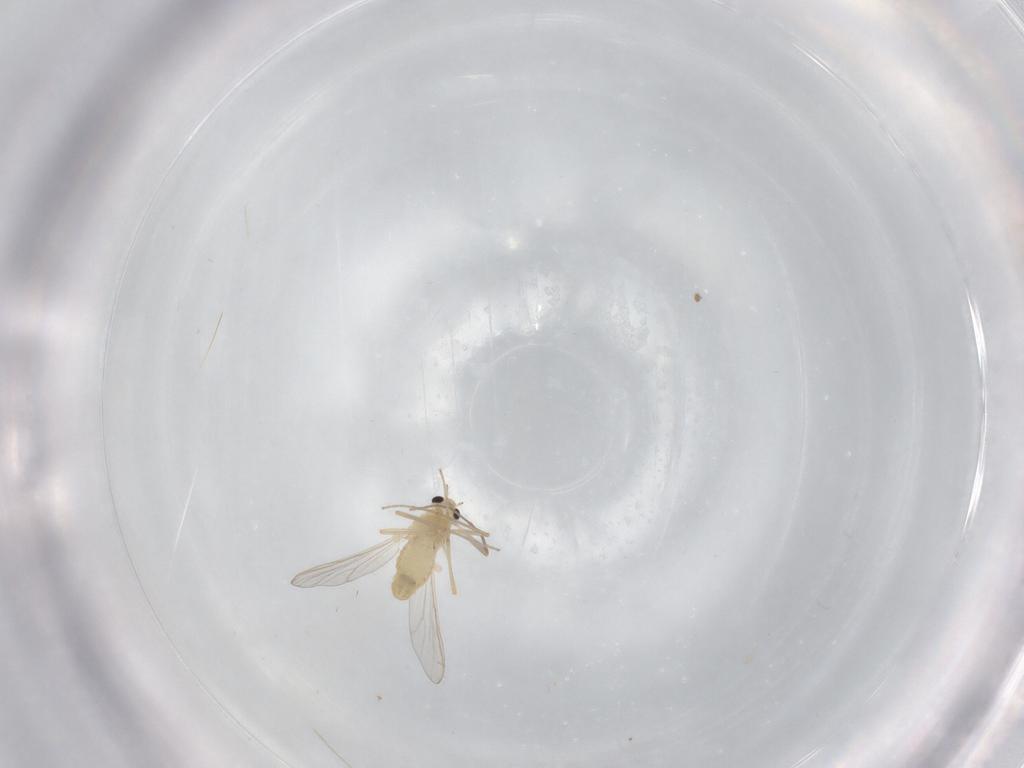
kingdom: Animalia
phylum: Arthropoda
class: Insecta
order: Diptera
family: Chironomidae
